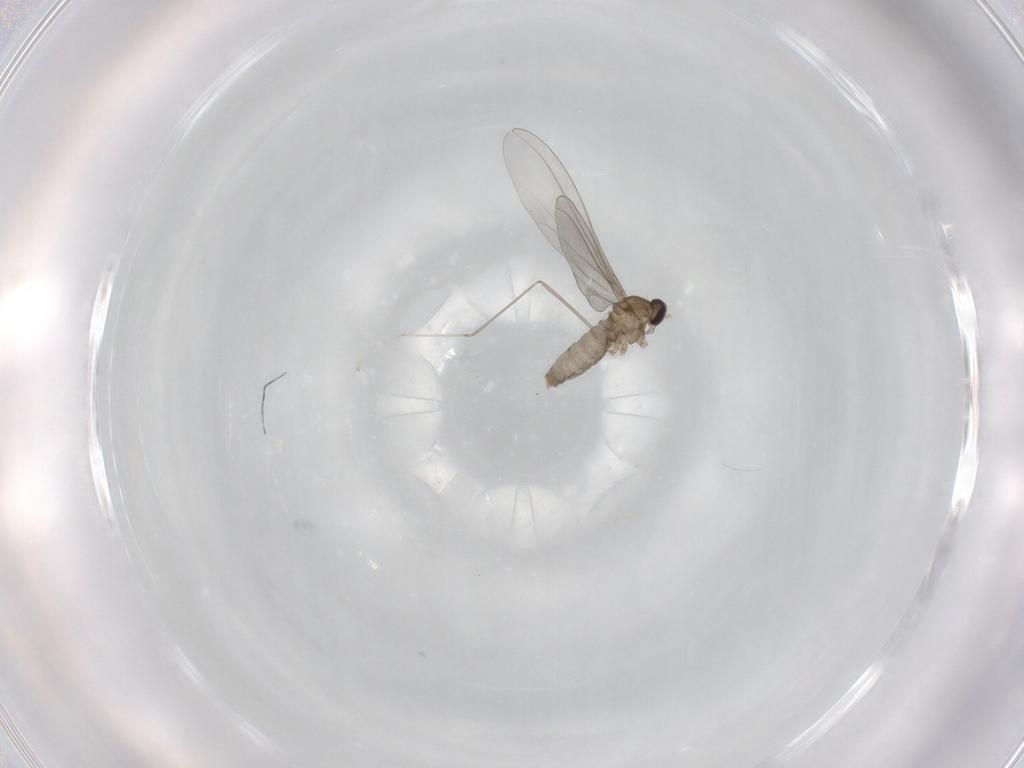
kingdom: Animalia
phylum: Arthropoda
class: Insecta
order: Diptera
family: Cecidomyiidae
